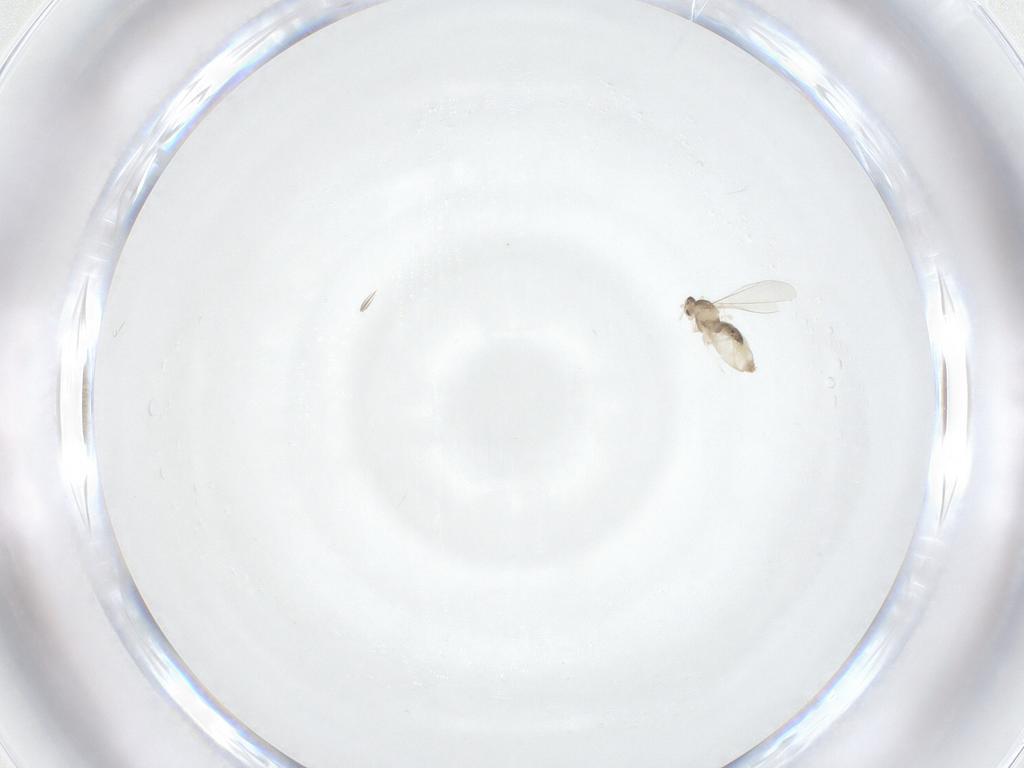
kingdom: Animalia
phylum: Arthropoda
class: Insecta
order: Diptera
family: Cecidomyiidae
